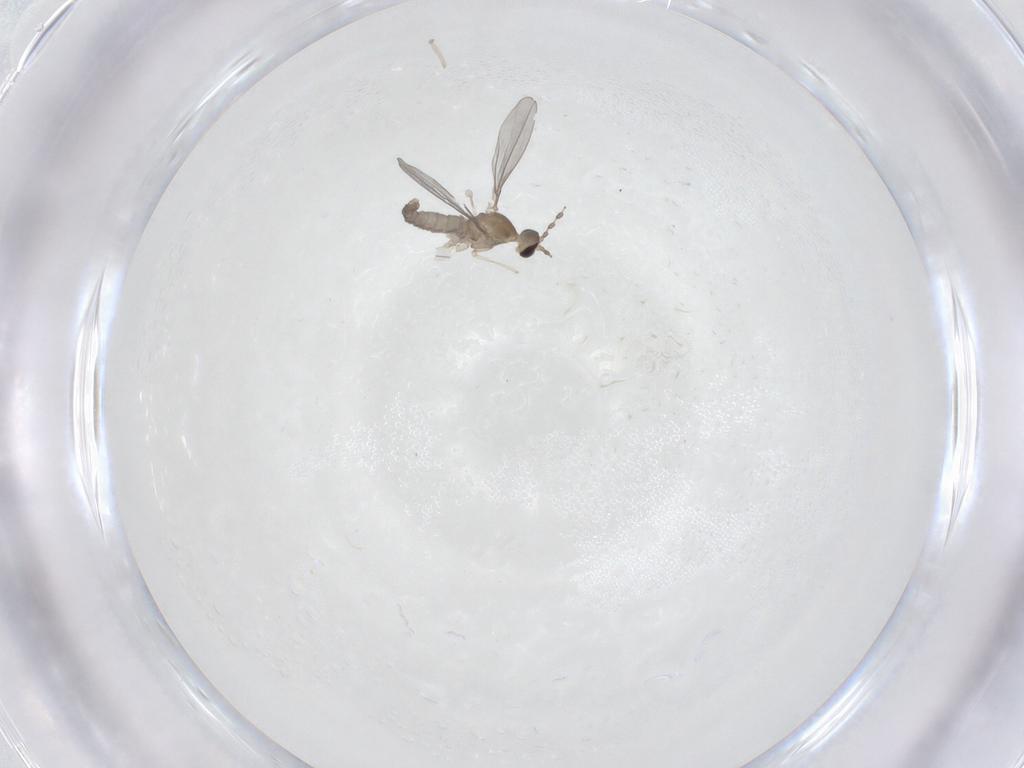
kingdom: Animalia
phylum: Arthropoda
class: Insecta
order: Diptera
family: Cecidomyiidae
